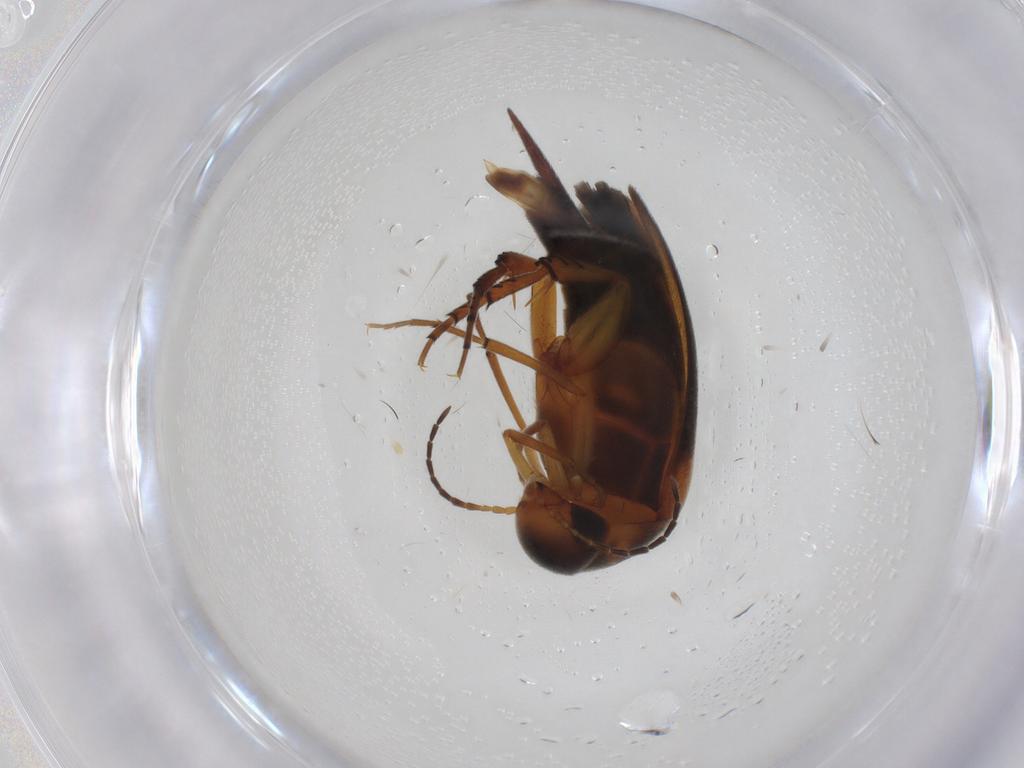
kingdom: Animalia
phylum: Arthropoda
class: Insecta
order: Coleoptera
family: Mordellidae
